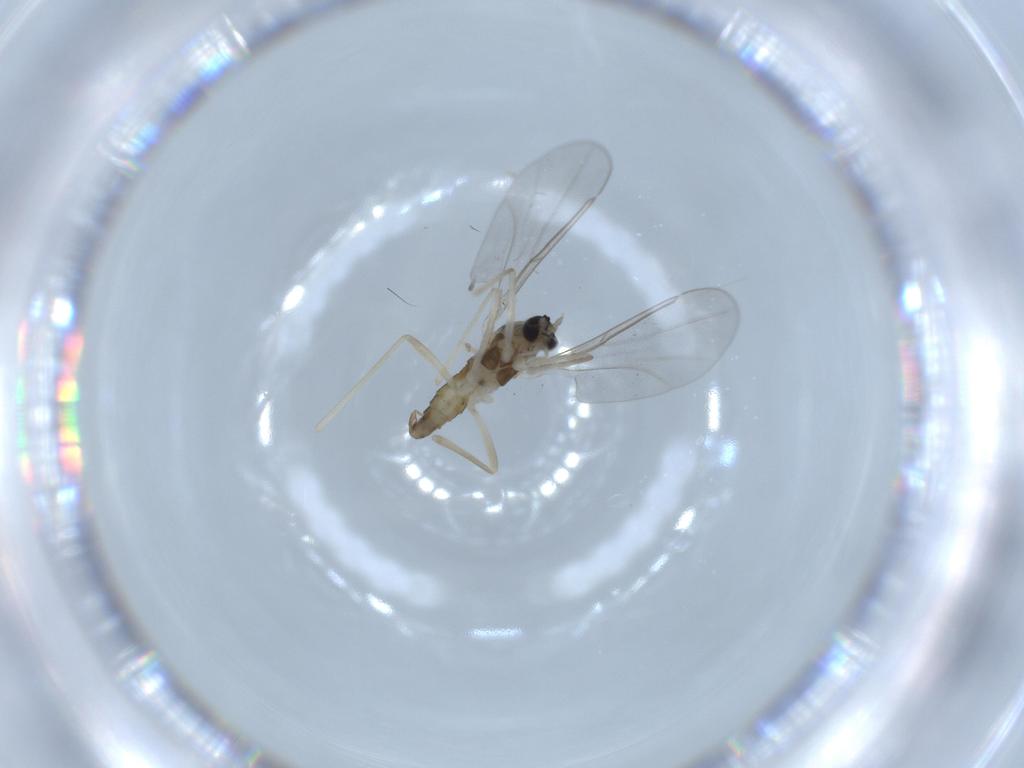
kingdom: Animalia
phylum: Arthropoda
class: Insecta
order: Diptera
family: Cecidomyiidae
